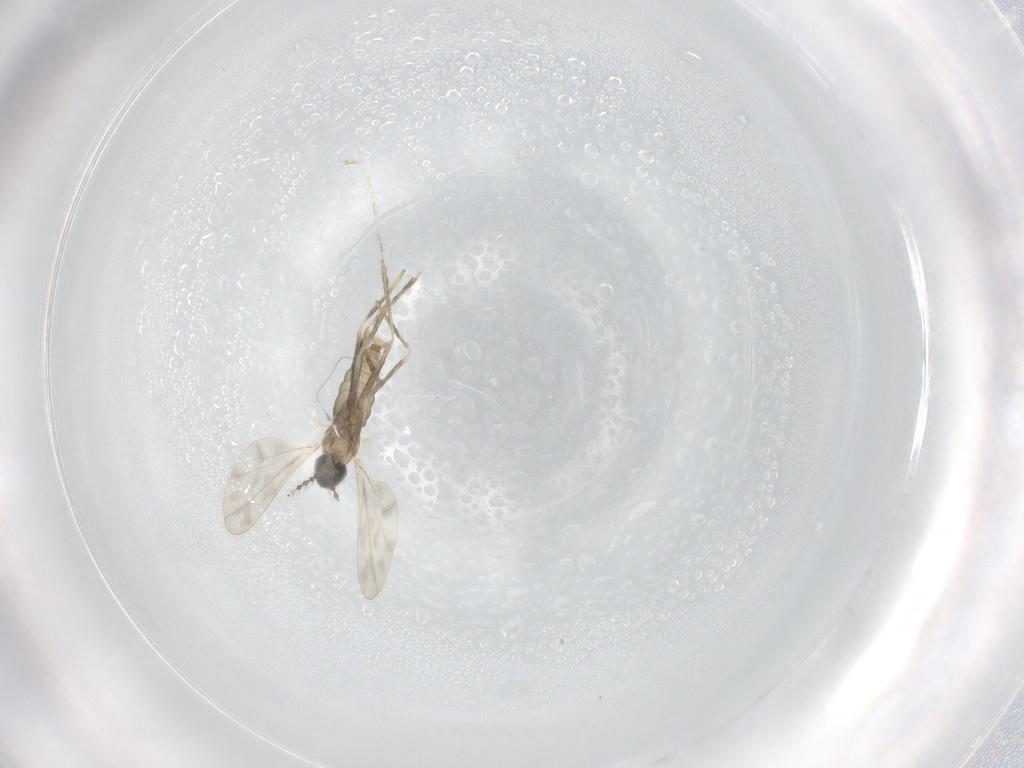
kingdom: Animalia
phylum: Arthropoda
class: Insecta
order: Diptera
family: Cecidomyiidae
